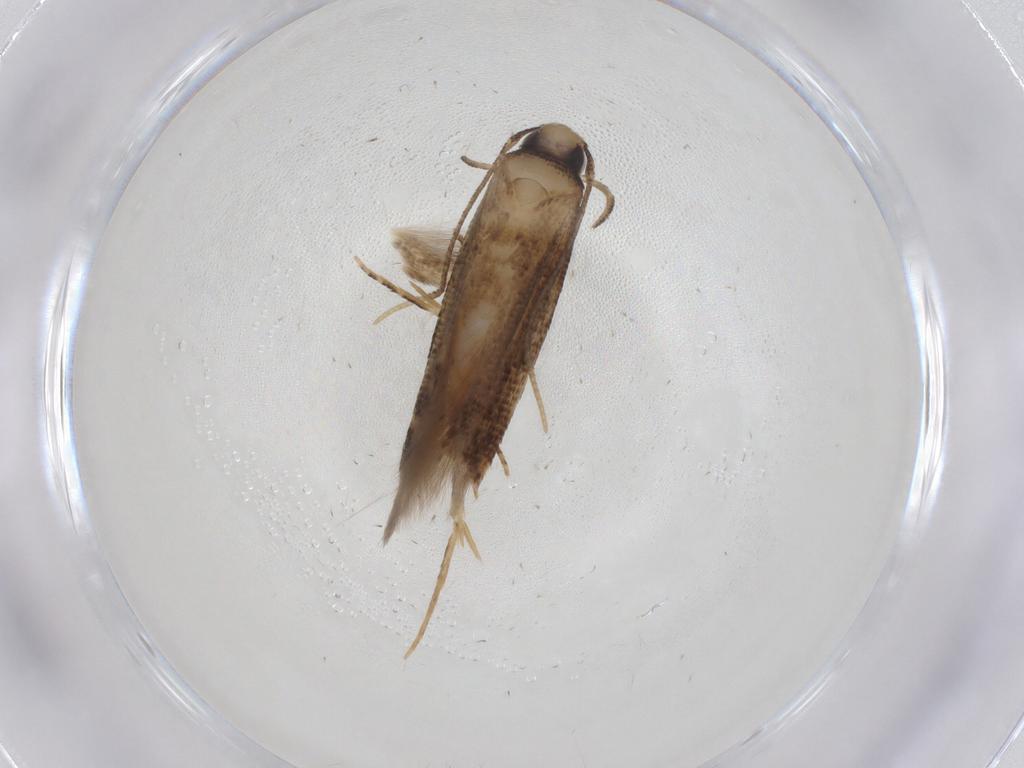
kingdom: Animalia
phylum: Arthropoda
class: Insecta
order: Lepidoptera
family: Cosmopterigidae
